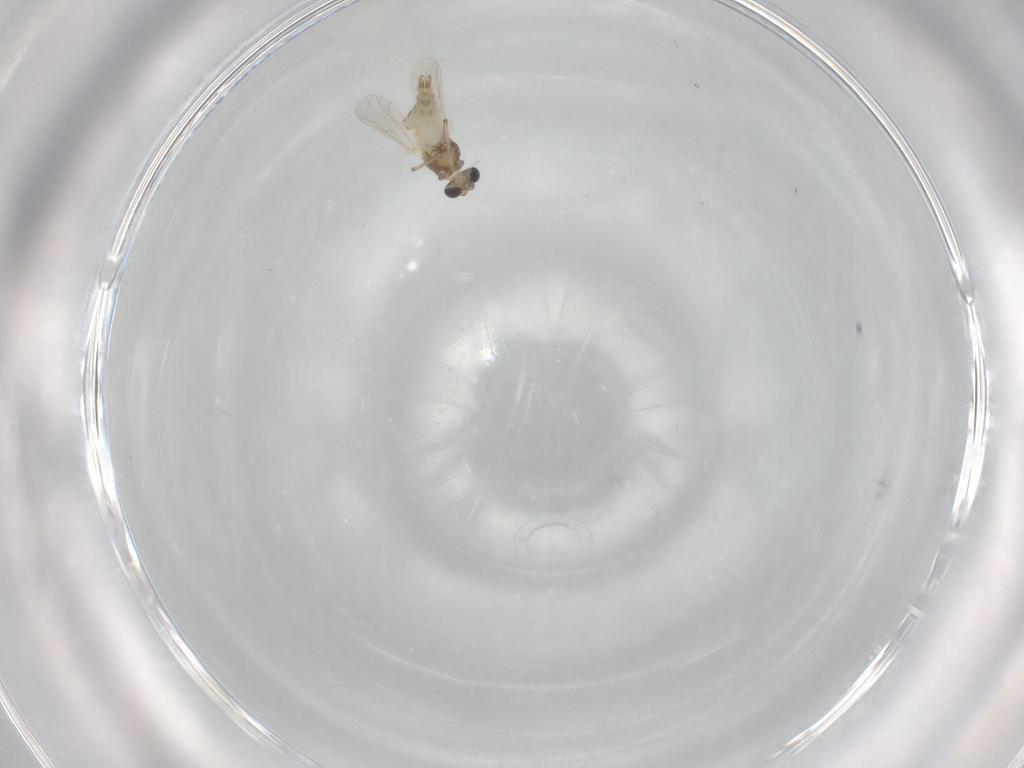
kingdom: Animalia
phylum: Arthropoda
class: Insecta
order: Diptera
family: Chironomidae
